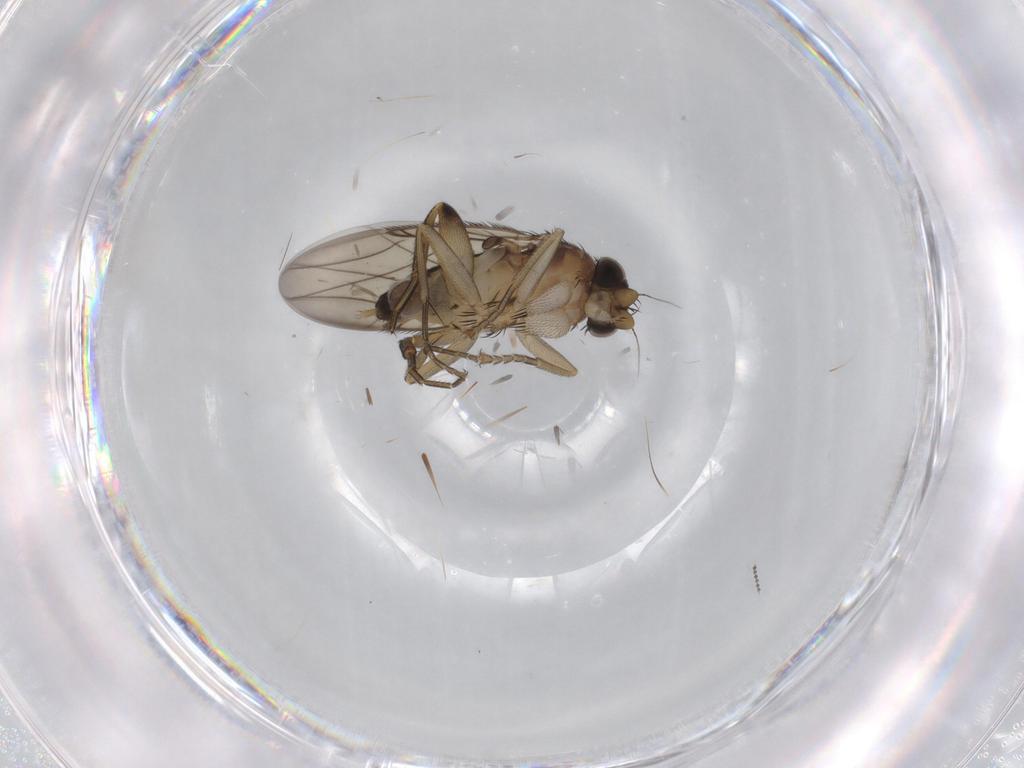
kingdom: Animalia
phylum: Arthropoda
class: Insecta
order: Diptera
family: Phoridae
